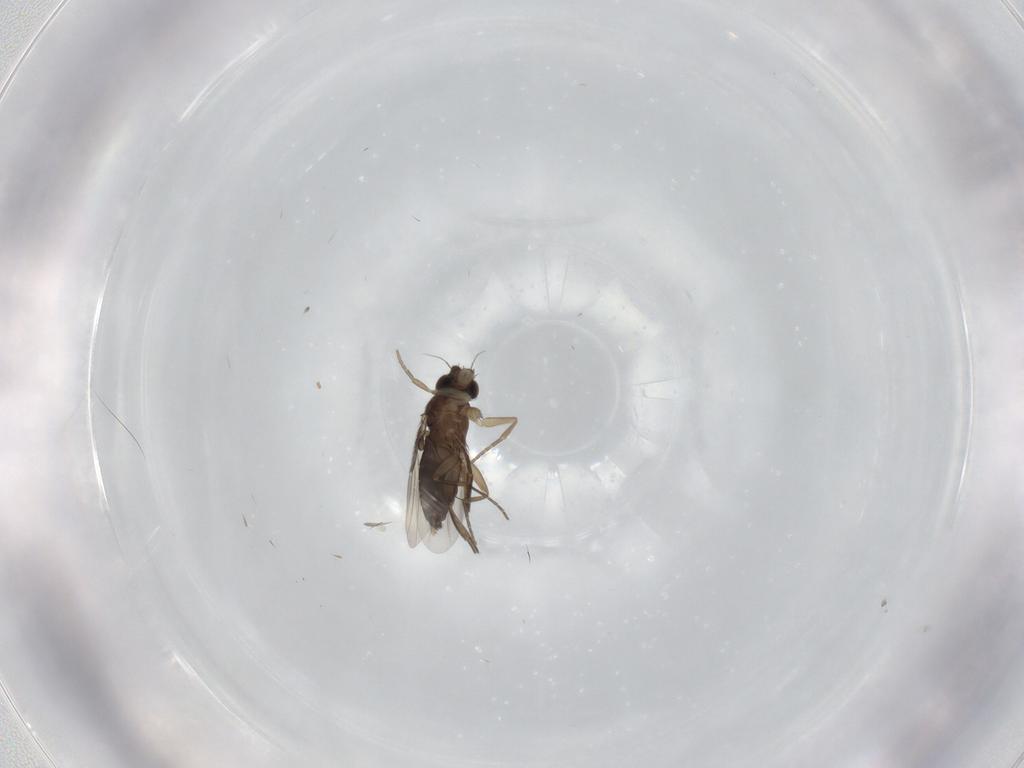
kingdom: Animalia
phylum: Arthropoda
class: Insecta
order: Diptera
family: Phoridae
